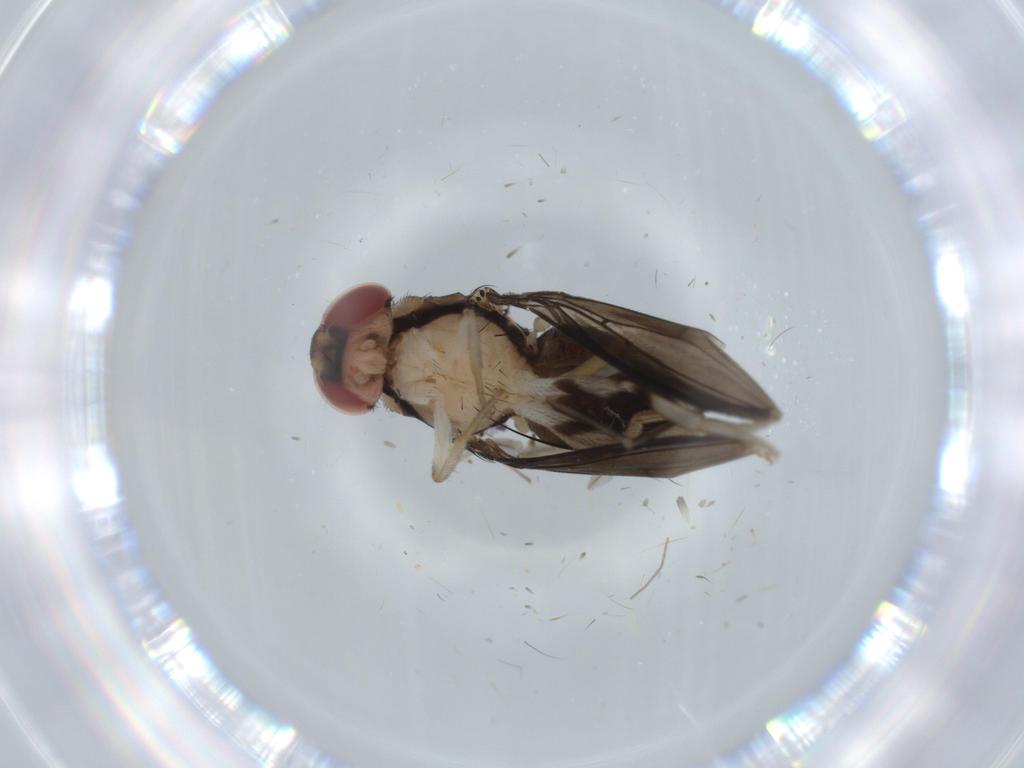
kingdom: Animalia
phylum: Arthropoda
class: Insecta
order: Diptera
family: Sciaridae
